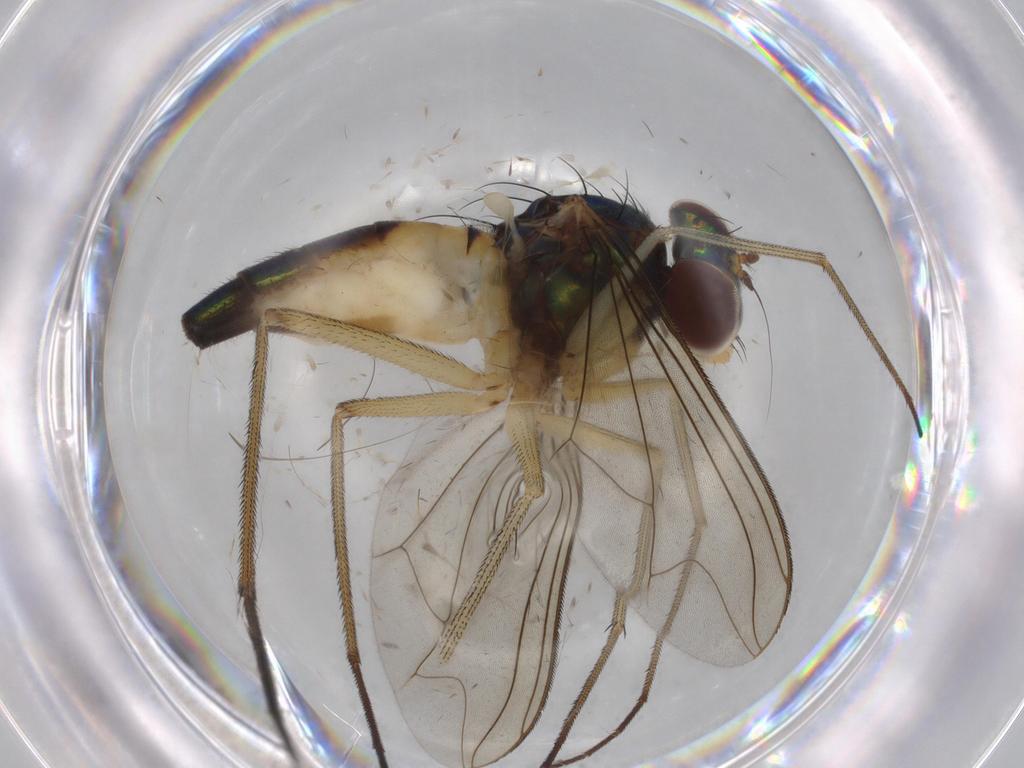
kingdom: Animalia
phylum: Arthropoda
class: Insecta
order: Diptera
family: Dolichopodidae
